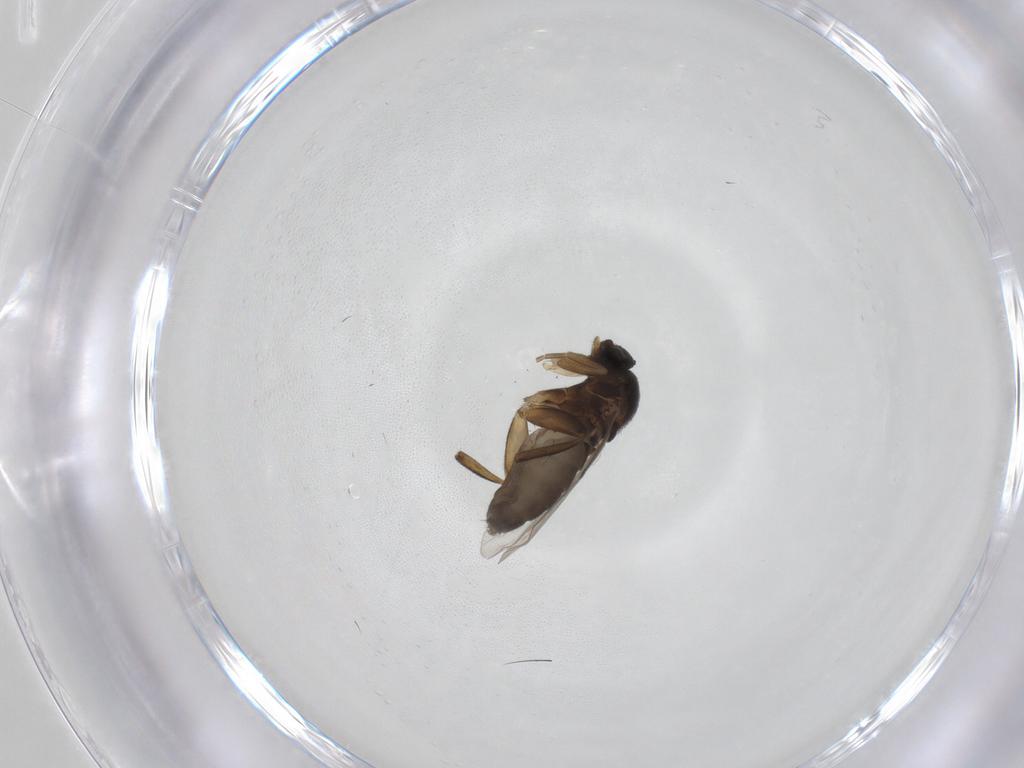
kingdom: Animalia
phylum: Arthropoda
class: Insecta
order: Diptera
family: Phoridae
